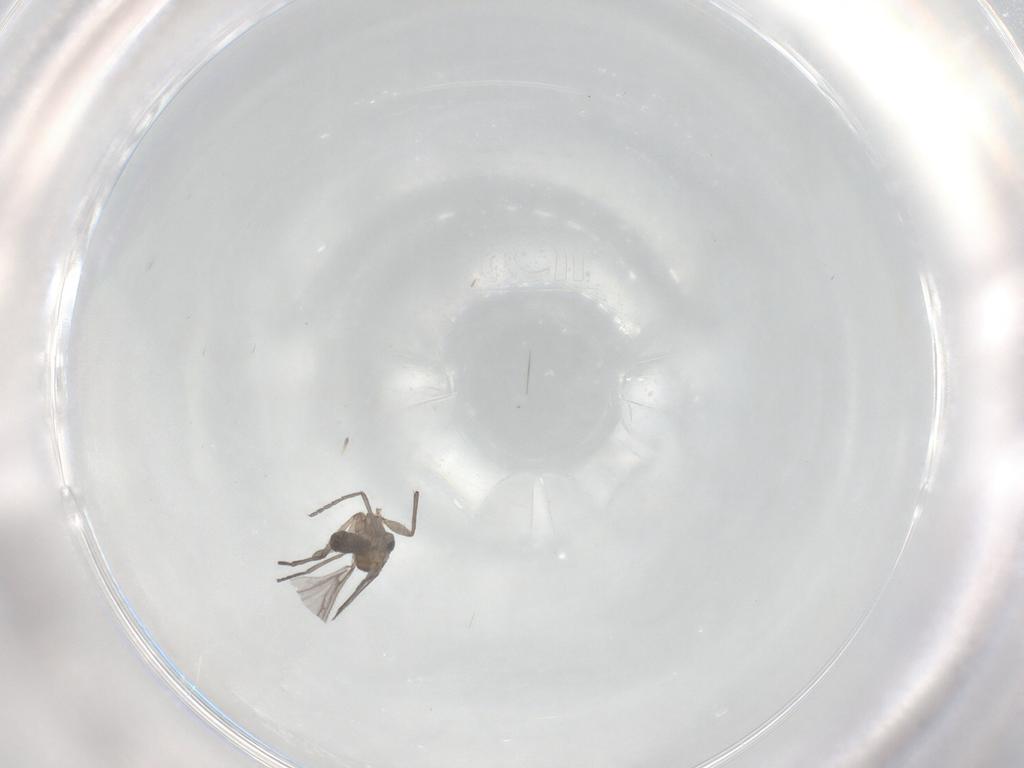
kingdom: Animalia
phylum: Arthropoda
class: Insecta
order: Diptera
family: Sciaridae
